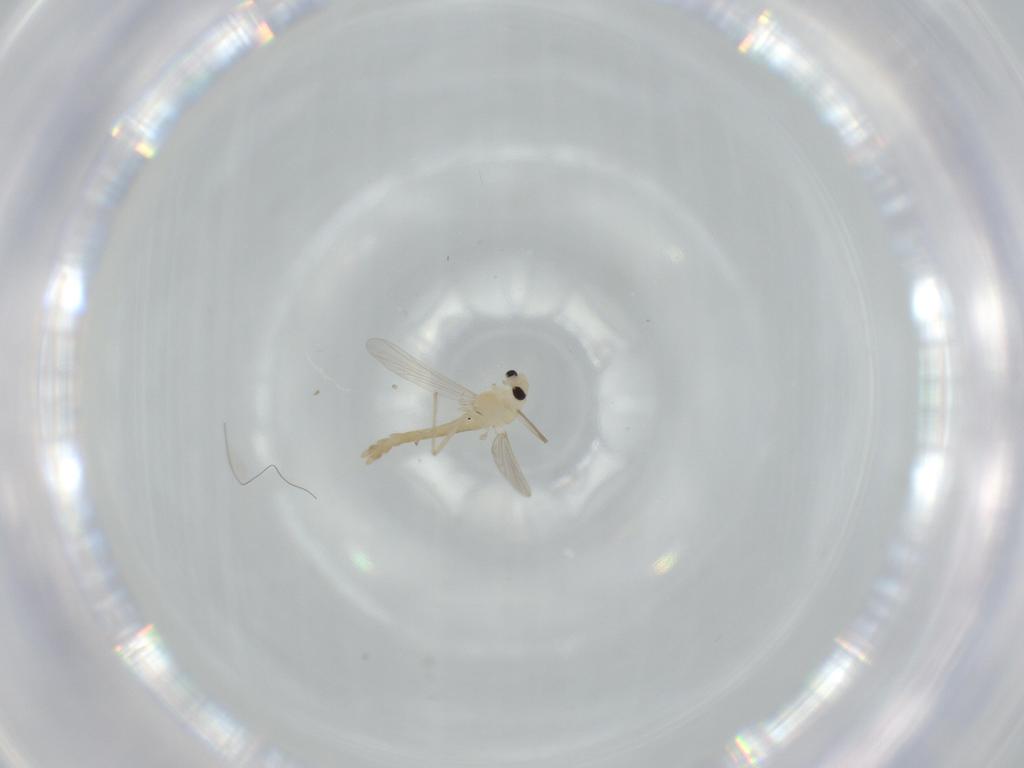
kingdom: Animalia
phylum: Arthropoda
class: Insecta
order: Diptera
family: Chironomidae
